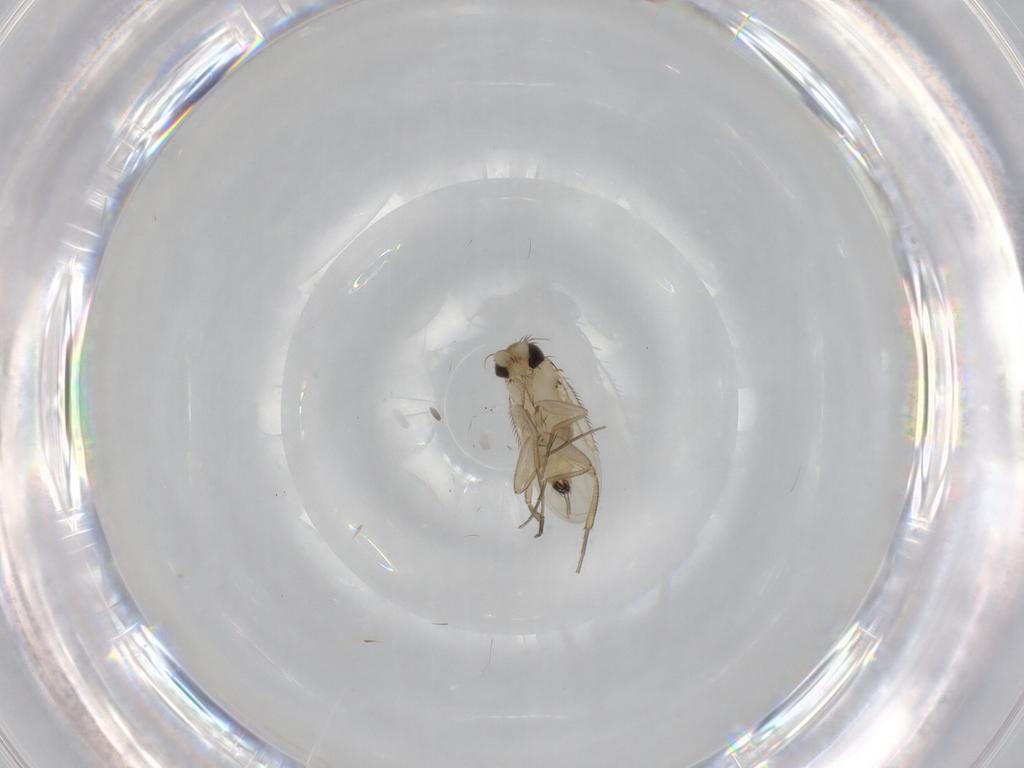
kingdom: Animalia
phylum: Arthropoda
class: Insecta
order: Diptera
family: Phoridae
